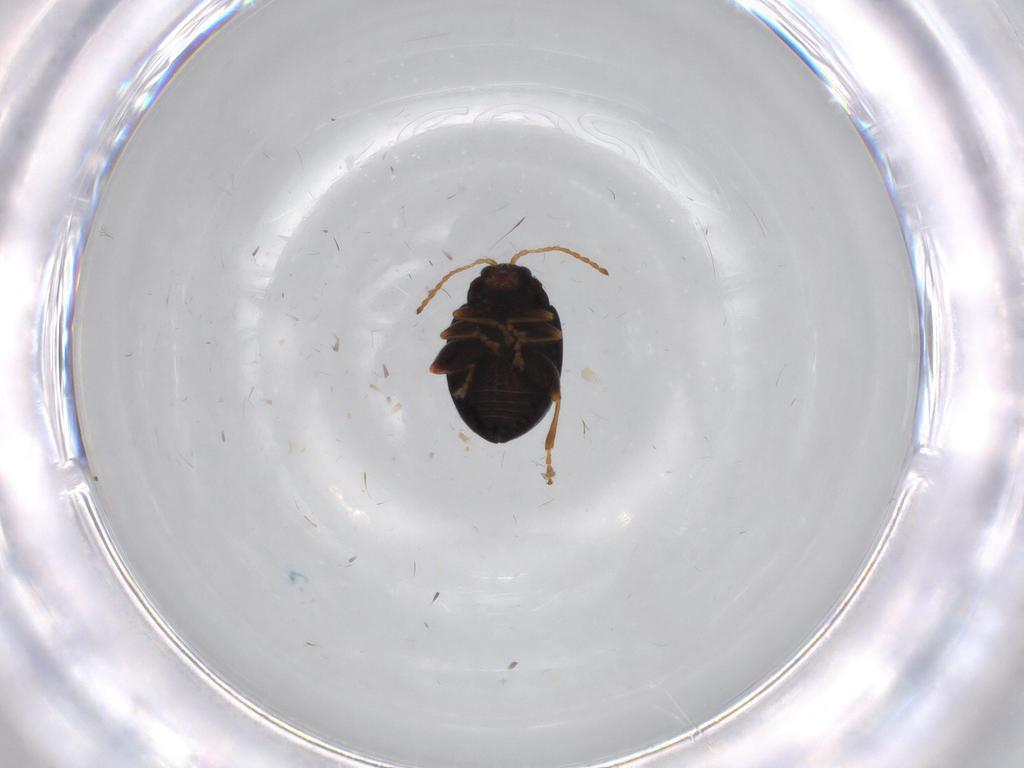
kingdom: Animalia
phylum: Arthropoda
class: Insecta
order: Coleoptera
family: Chrysomelidae
